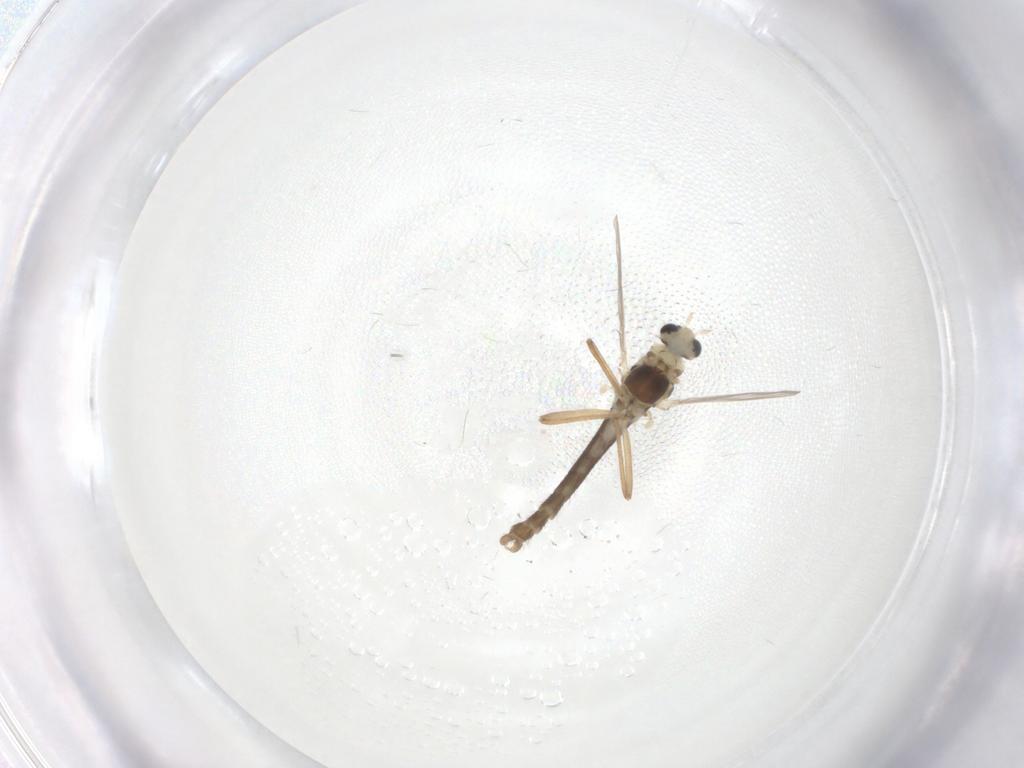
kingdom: Animalia
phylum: Arthropoda
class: Insecta
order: Diptera
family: Chironomidae
